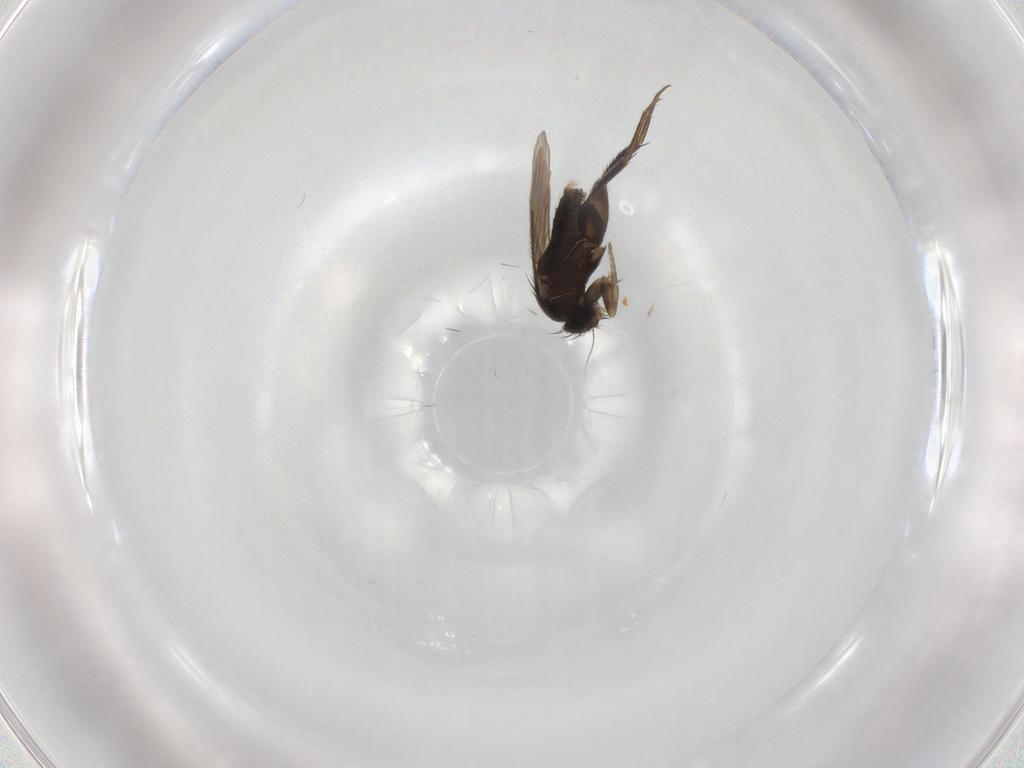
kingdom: Animalia
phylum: Arthropoda
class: Insecta
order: Diptera
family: Phoridae
